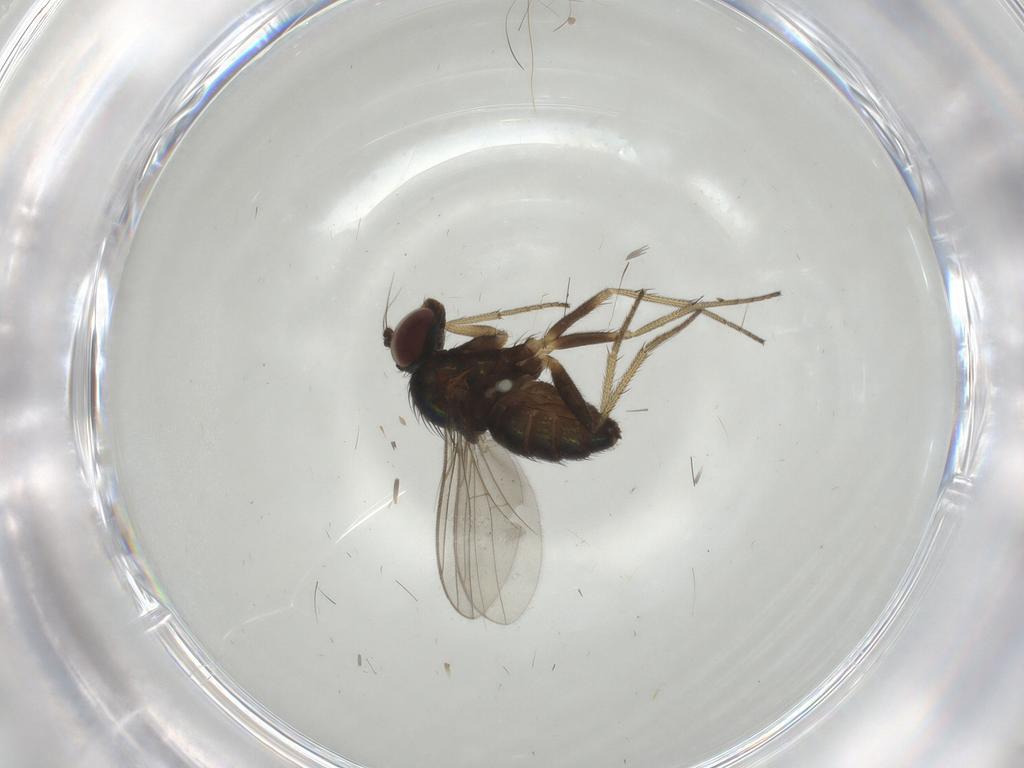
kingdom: Animalia
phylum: Arthropoda
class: Insecta
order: Diptera
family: Dolichopodidae
